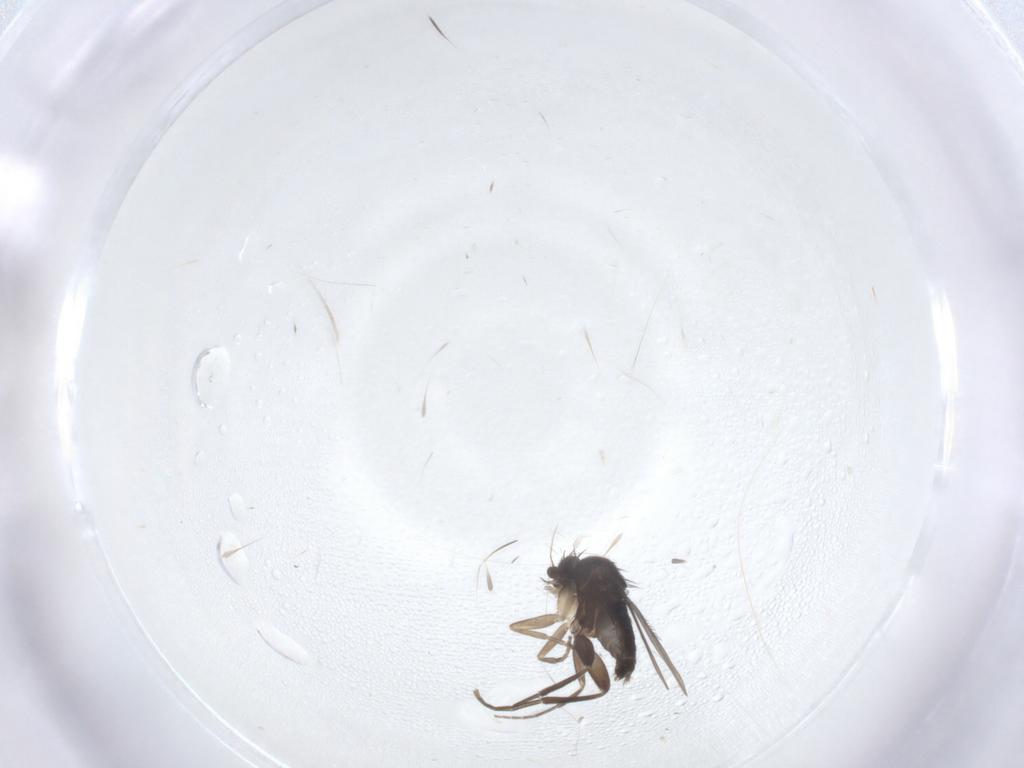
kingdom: Animalia
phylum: Arthropoda
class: Insecta
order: Diptera
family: Phoridae
